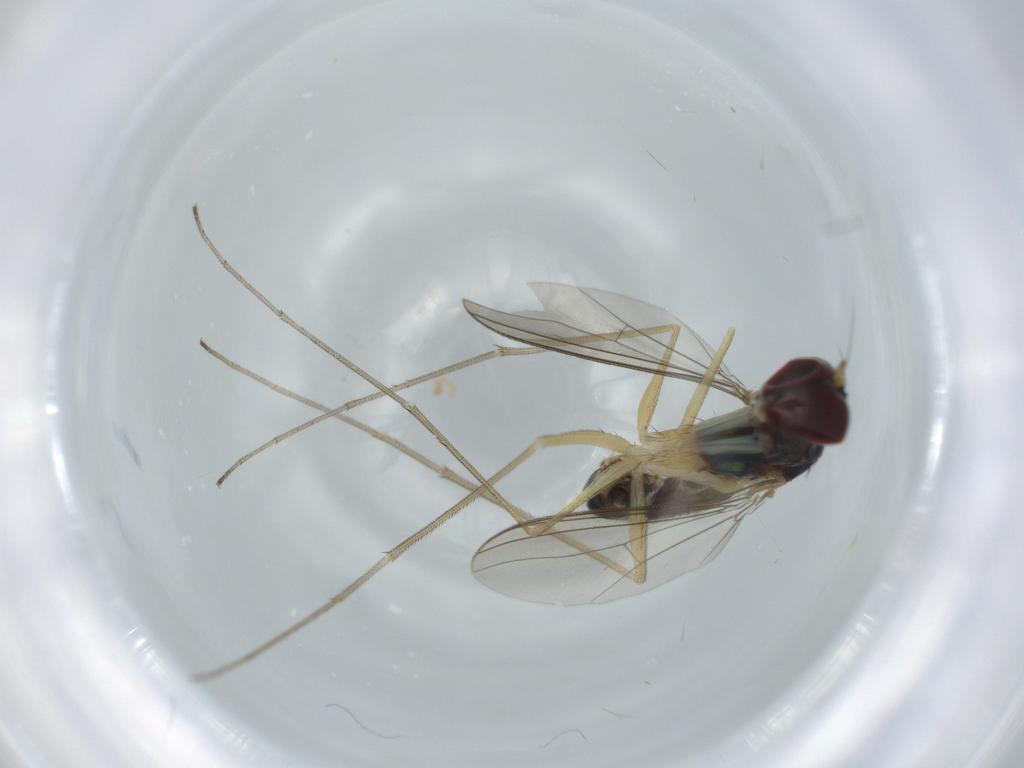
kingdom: Animalia
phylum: Arthropoda
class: Insecta
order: Diptera
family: Dolichopodidae
